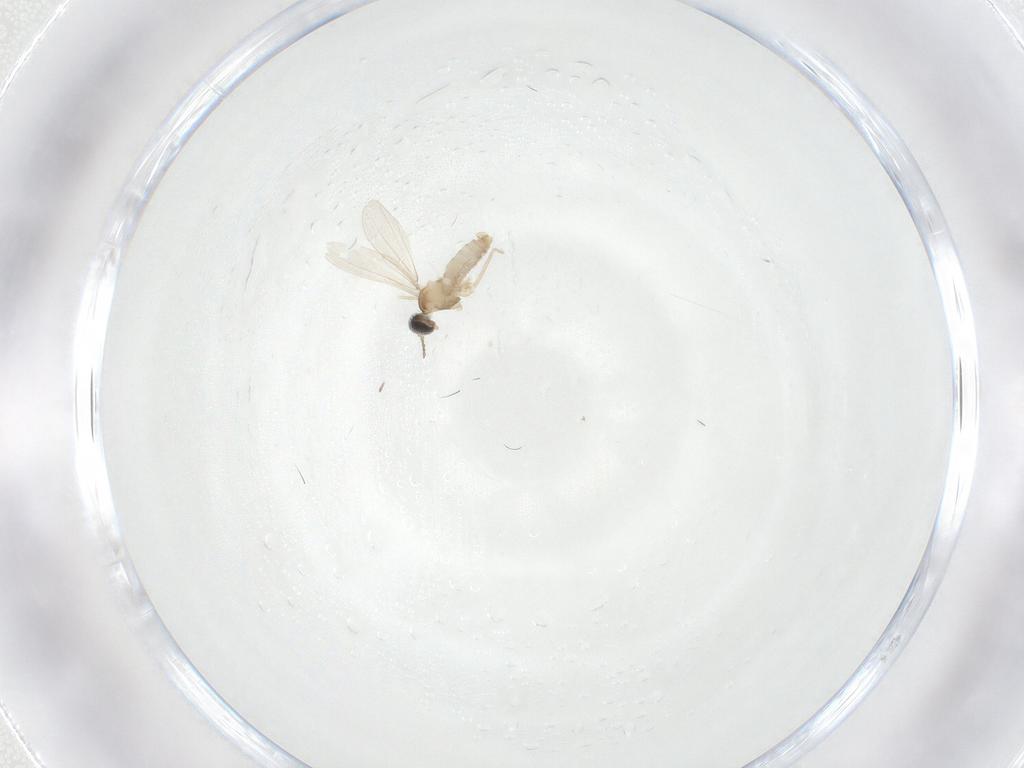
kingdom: Animalia
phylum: Arthropoda
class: Insecta
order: Diptera
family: Cecidomyiidae
